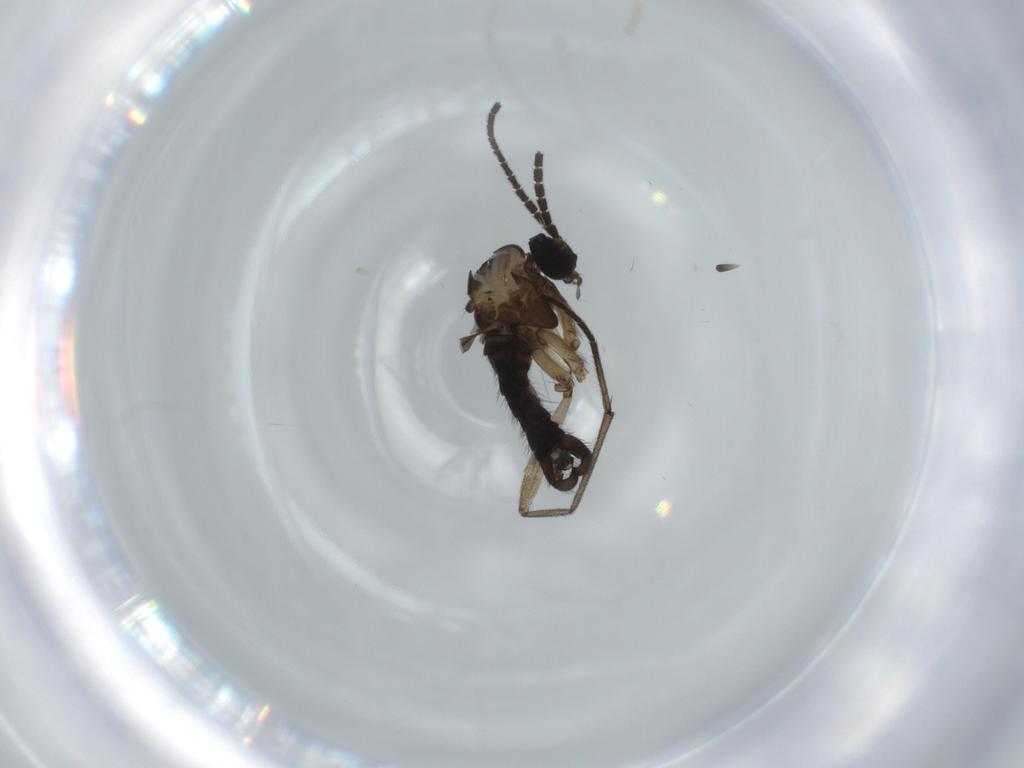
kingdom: Animalia
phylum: Arthropoda
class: Insecta
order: Diptera
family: Sciaridae
